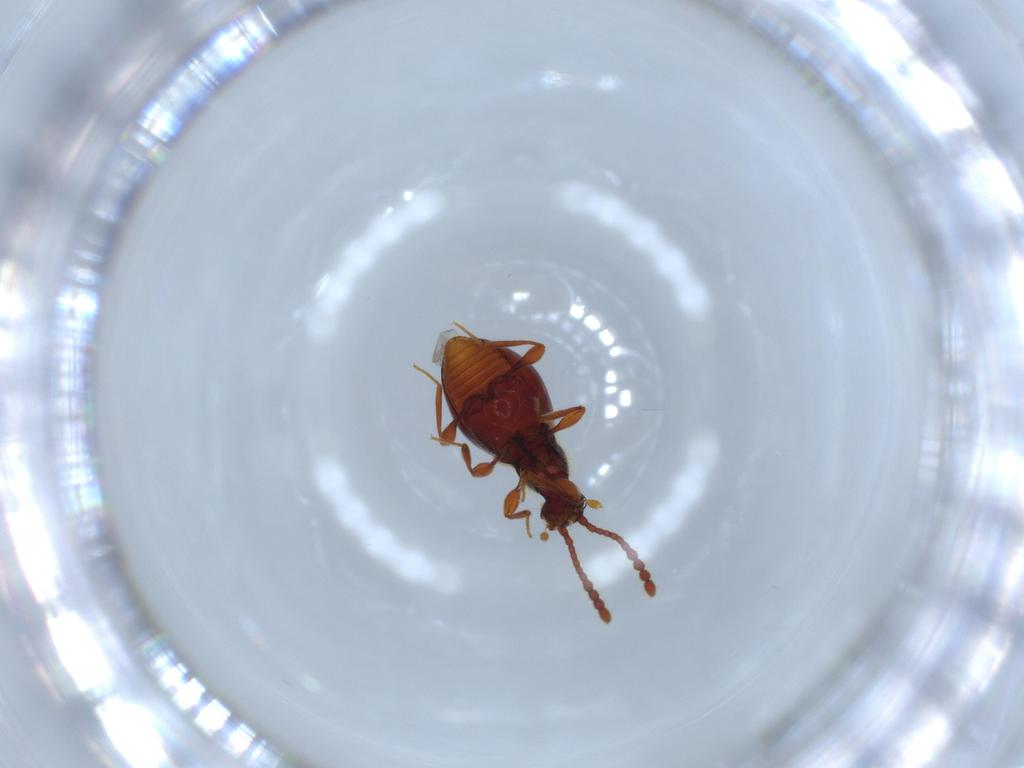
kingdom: Animalia
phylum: Arthropoda
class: Insecta
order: Coleoptera
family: Staphylinidae
